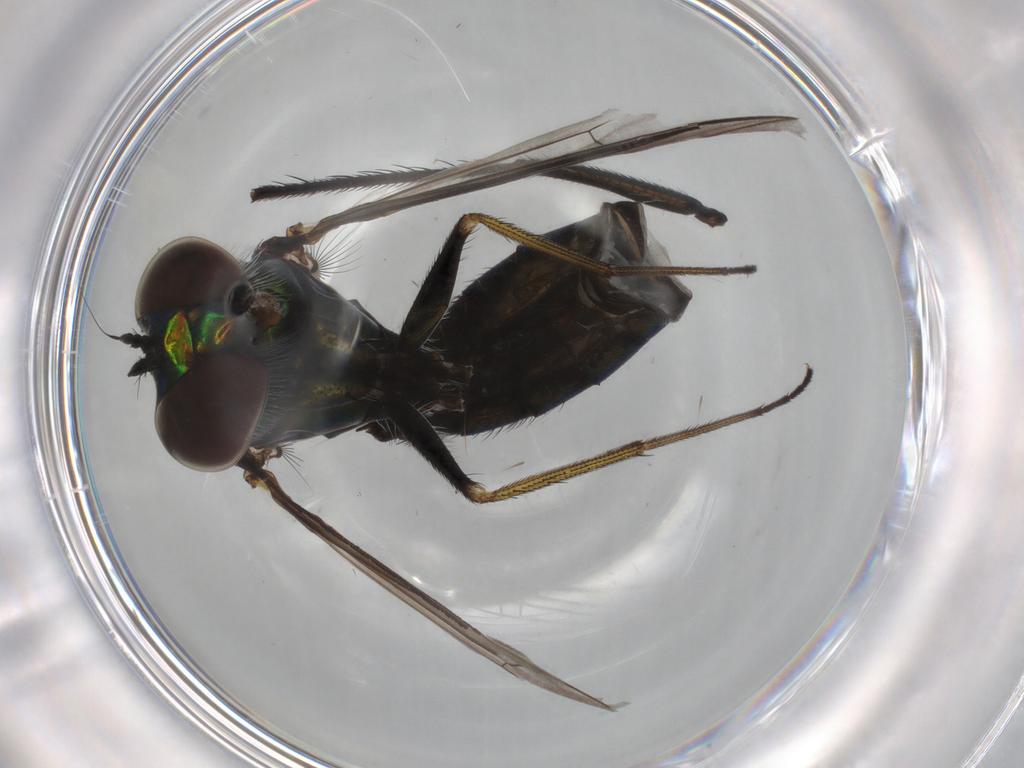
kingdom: Animalia
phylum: Arthropoda
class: Insecta
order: Diptera
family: Dolichopodidae
